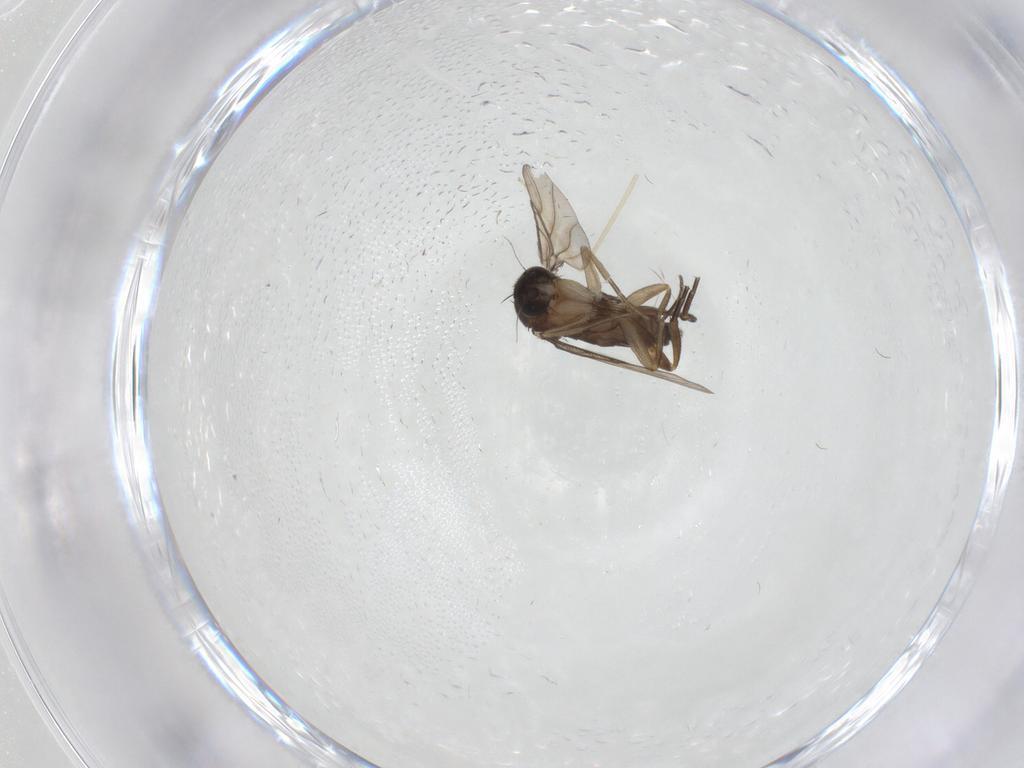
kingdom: Animalia
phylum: Arthropoda
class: Insecta
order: Diptera
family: Phoridae
